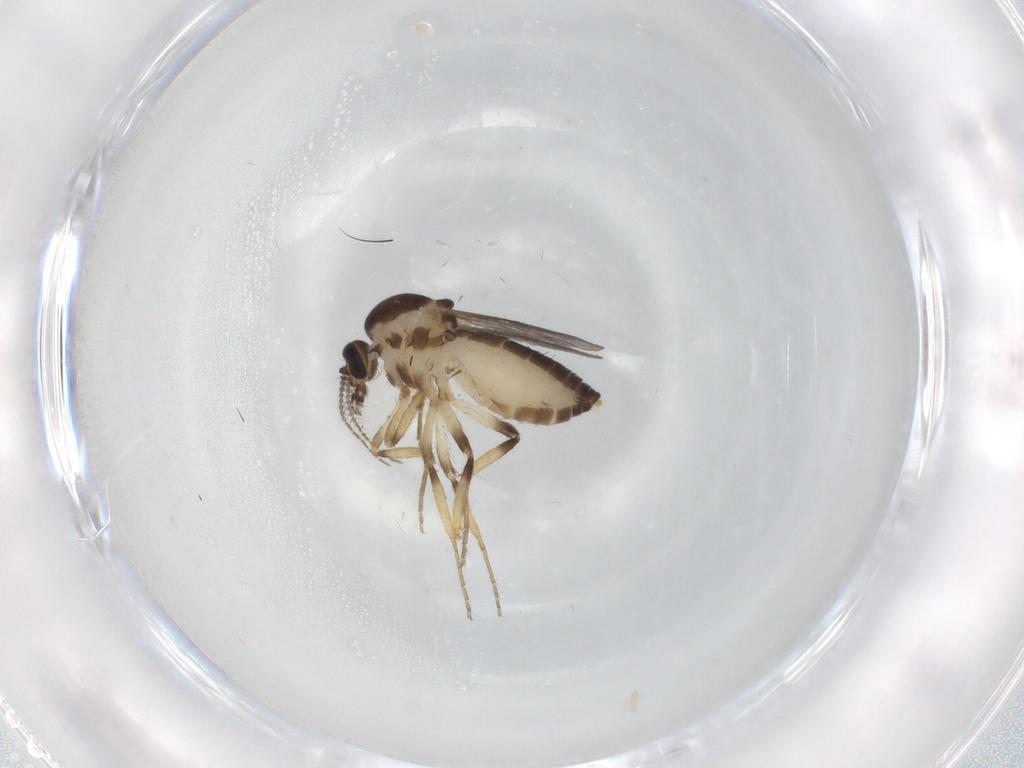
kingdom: Animalia
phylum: Arthropoda
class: Insecta
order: Diptera
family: Ceratopogonidae
